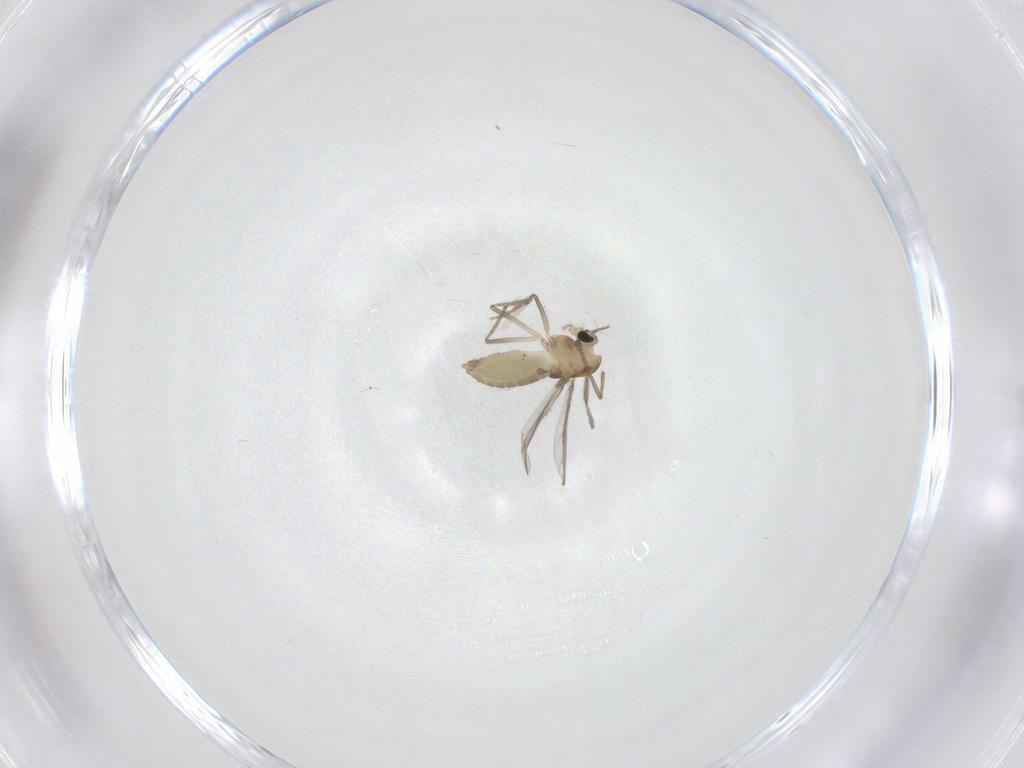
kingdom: Animalia
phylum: Arthropoda
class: Insecta
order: Diptera
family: Chironomidae
